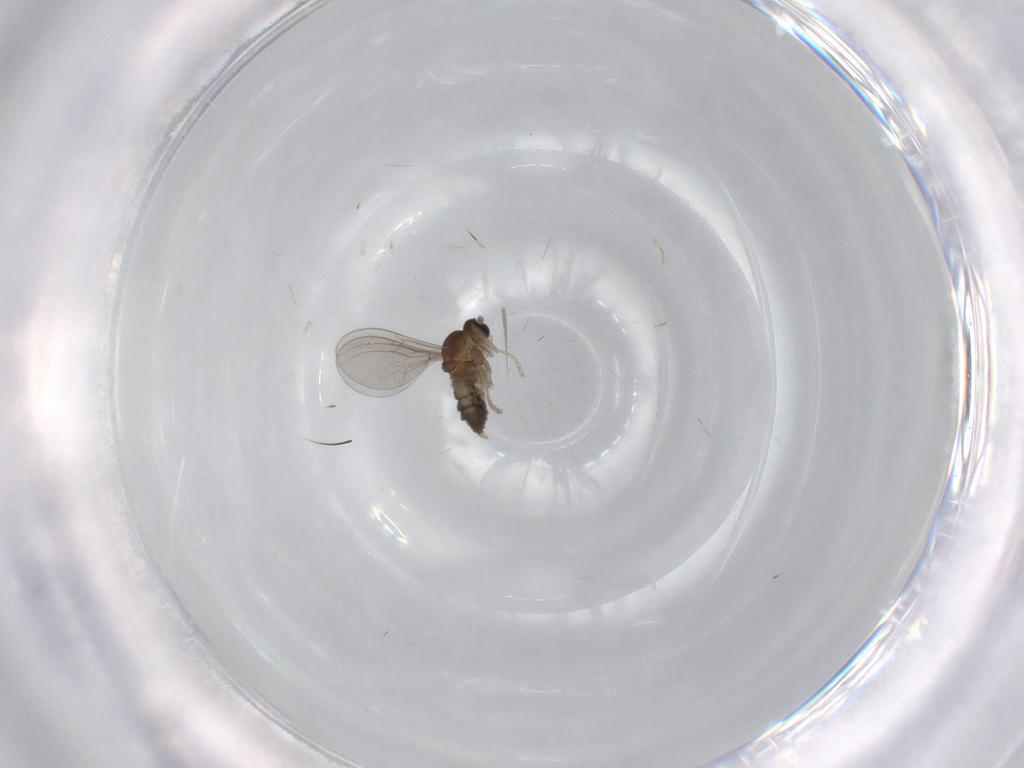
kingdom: Animalia
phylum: Arthropoda
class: Insecta
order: Diptera
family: Cecidomyiidae
